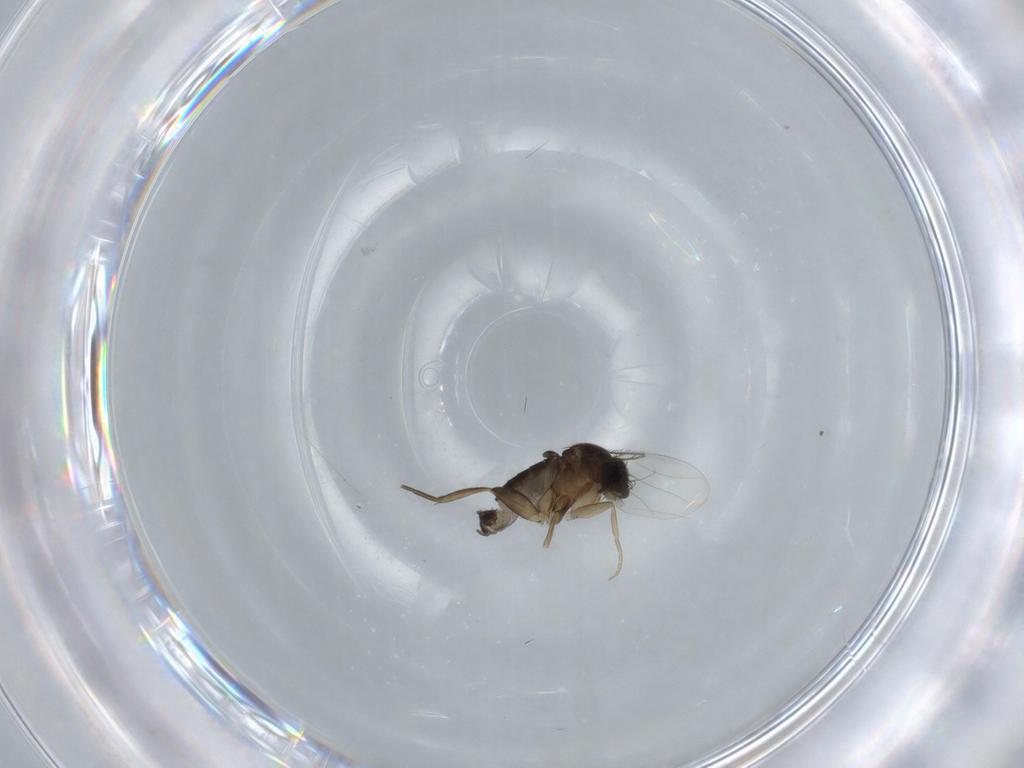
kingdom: Animalia
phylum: Arthropoda
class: Insecta
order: Diptera
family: Phoridae
